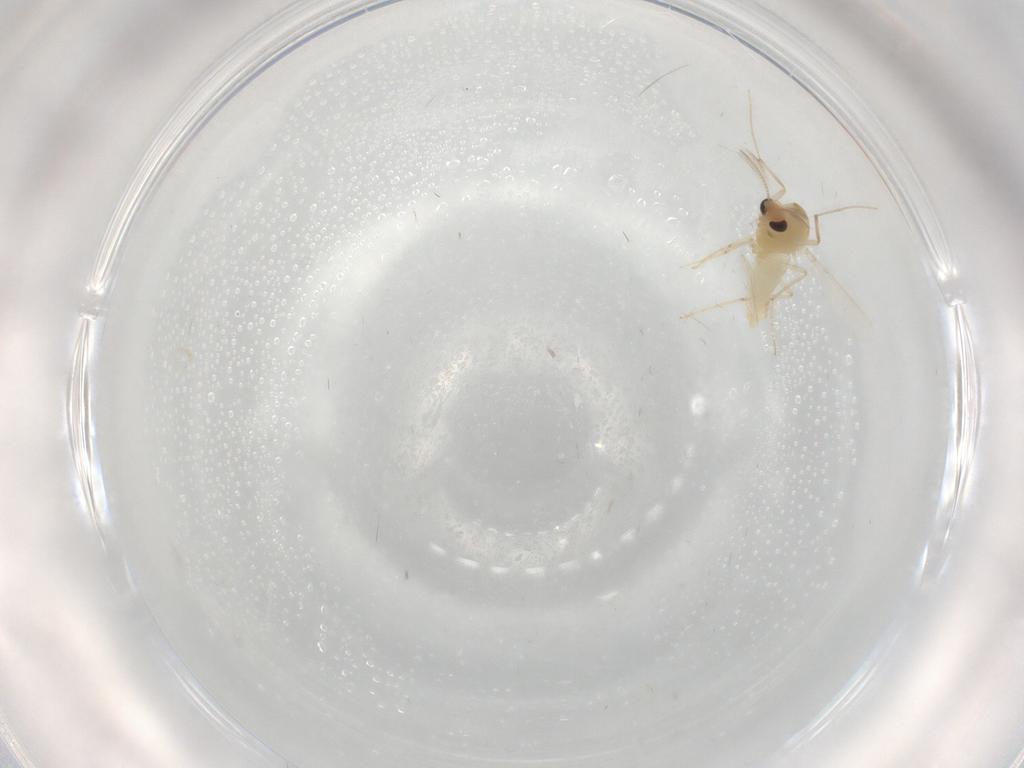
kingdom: Animalia
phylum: Arthropoda
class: Insecta
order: Diptera
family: Chironomidae
